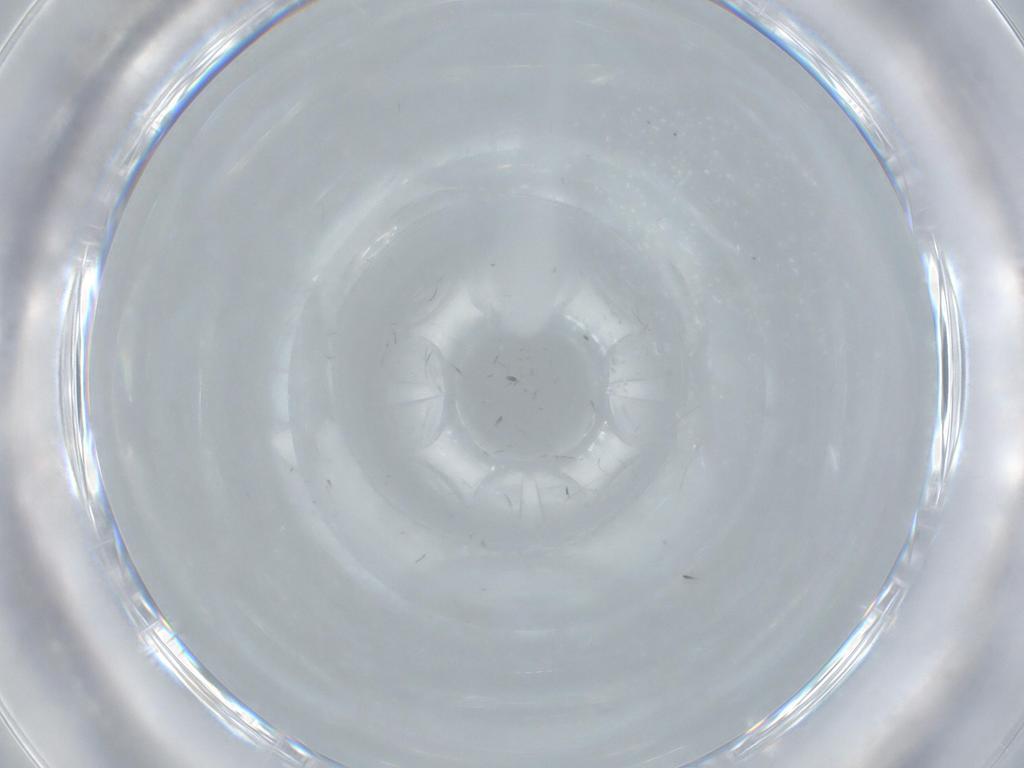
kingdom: Animalia
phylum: Arthropoda
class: Insecta
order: Diptera
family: Phoridae
